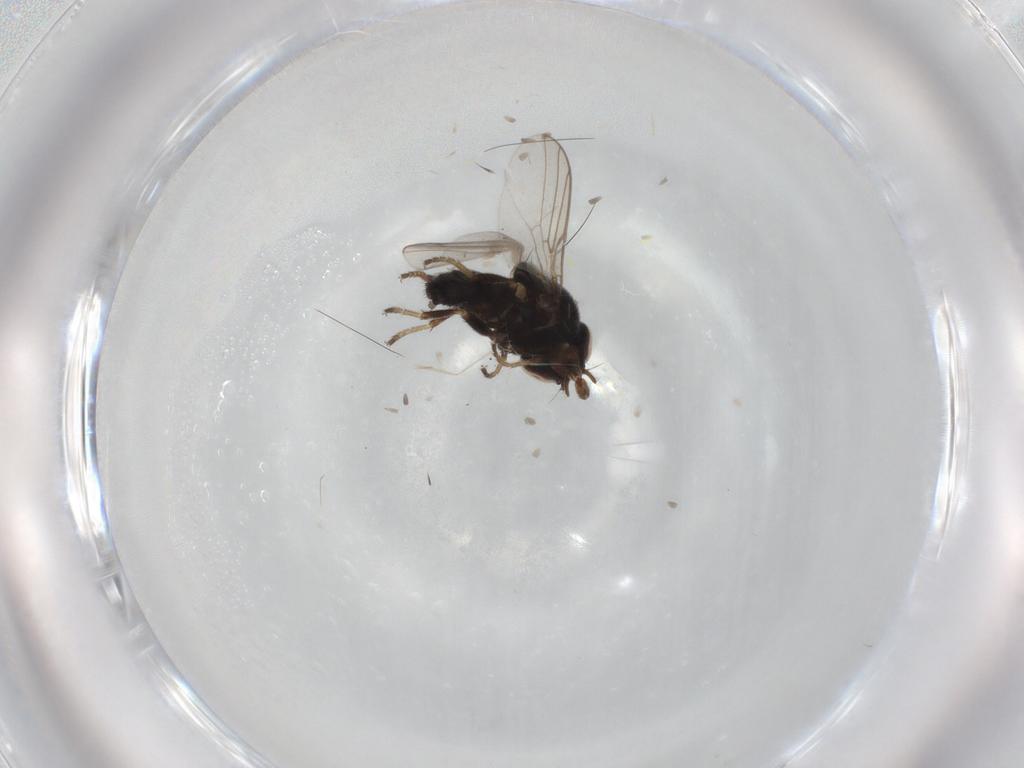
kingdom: Animalia
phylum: Arthropoda
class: Insecta
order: Diptera
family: Chloropidae
